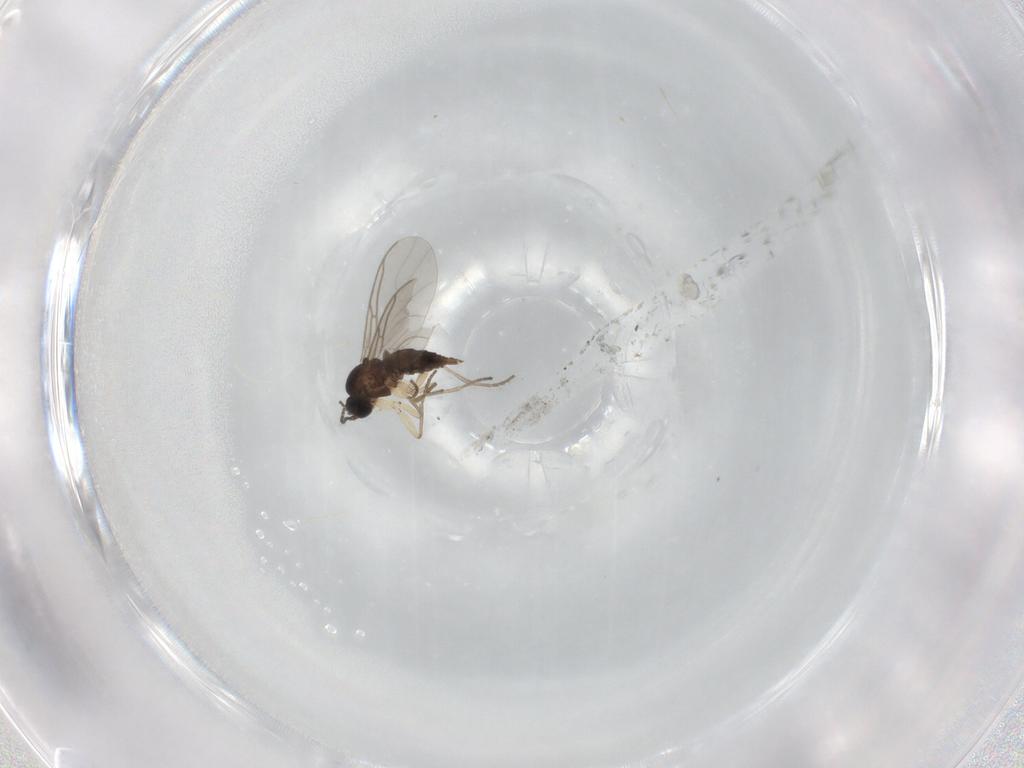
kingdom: Animalia
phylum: Arthropoda
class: Insecta
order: Diptera
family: Sciaridae
